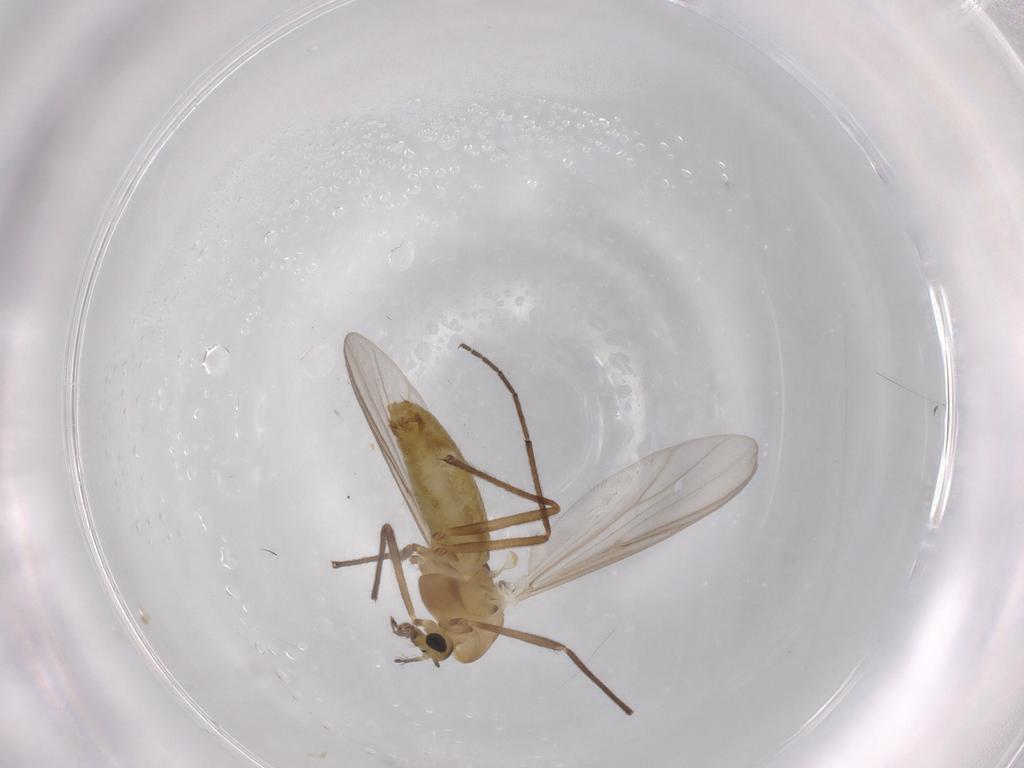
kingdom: Animalia
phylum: Arthropoda
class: Insecta
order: Diptera
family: Chironomidae
